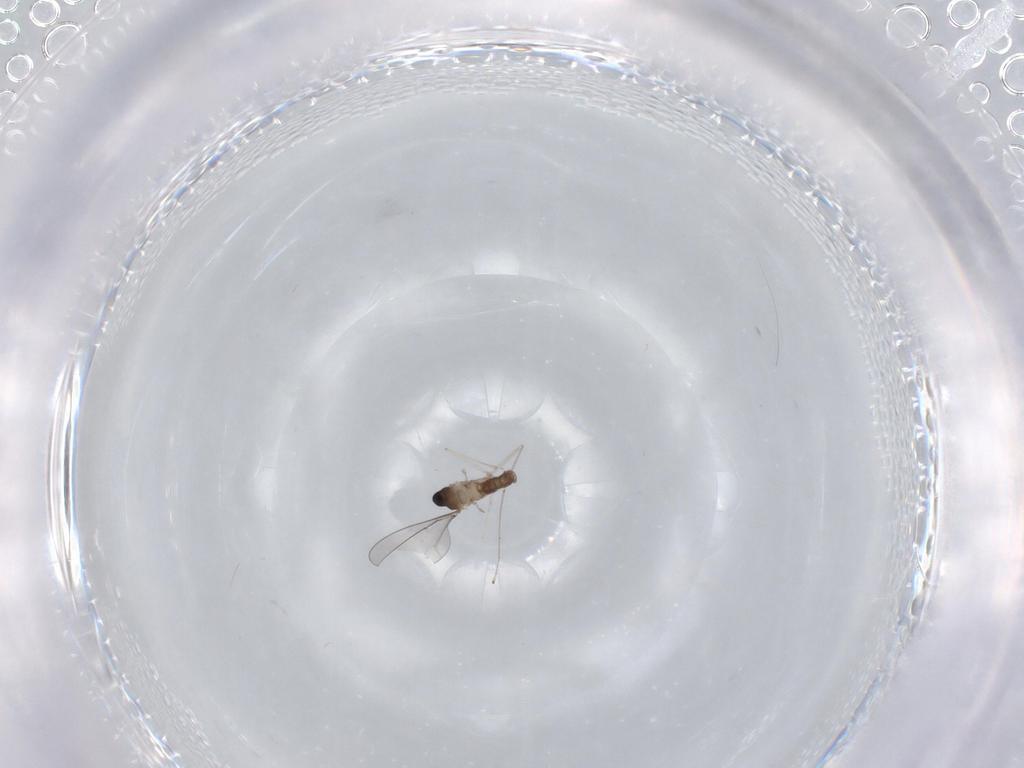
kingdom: Animalia
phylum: Arthropoda
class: Insecta
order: Diptera
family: Cecidomyiidae
